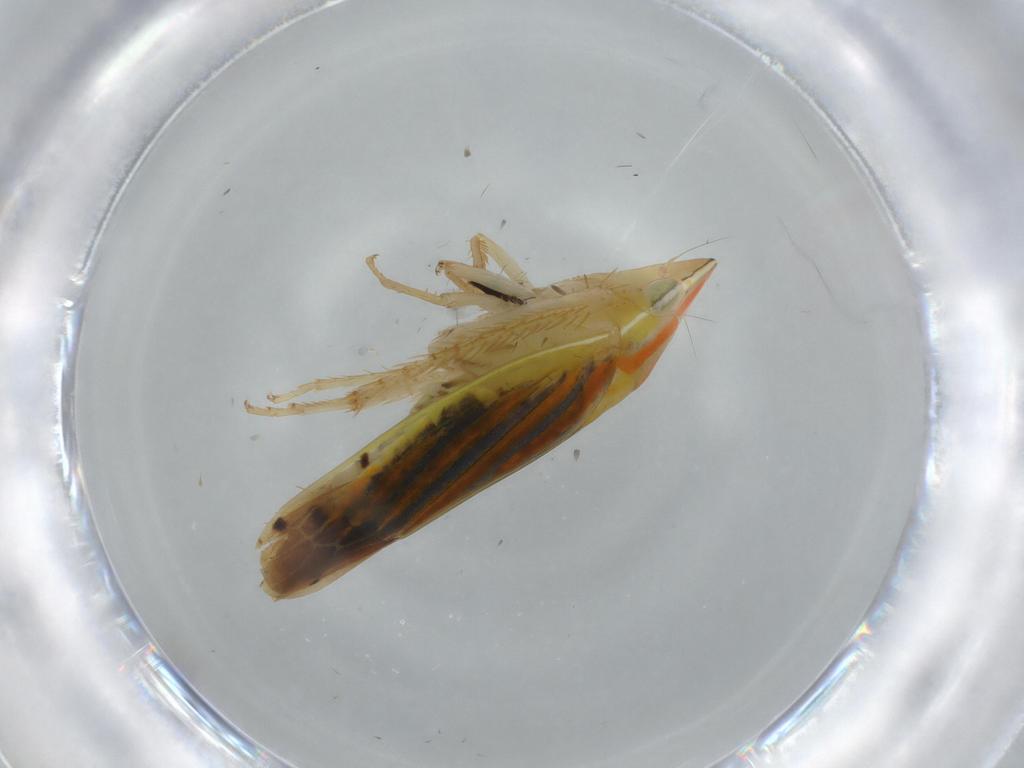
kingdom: Animalia
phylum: Arthropoda
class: Insecta
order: Hemiptera
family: Cicadellidae
